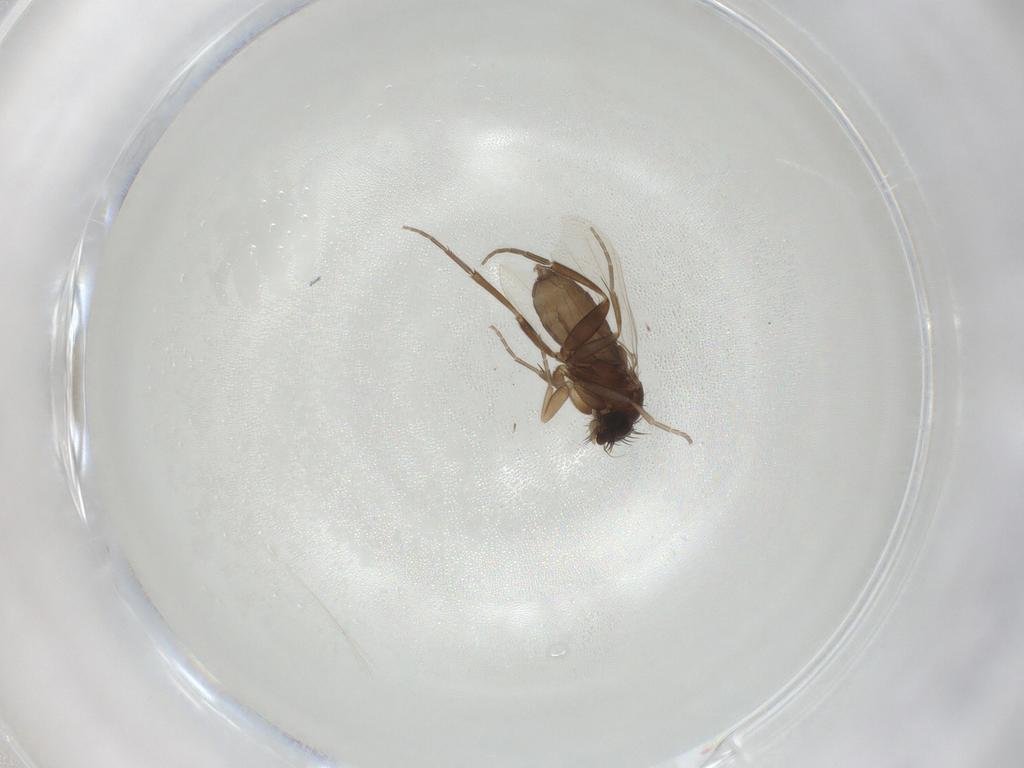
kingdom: Animalia
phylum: Arthropoda
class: Insecta
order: Diptera
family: Phoridae
